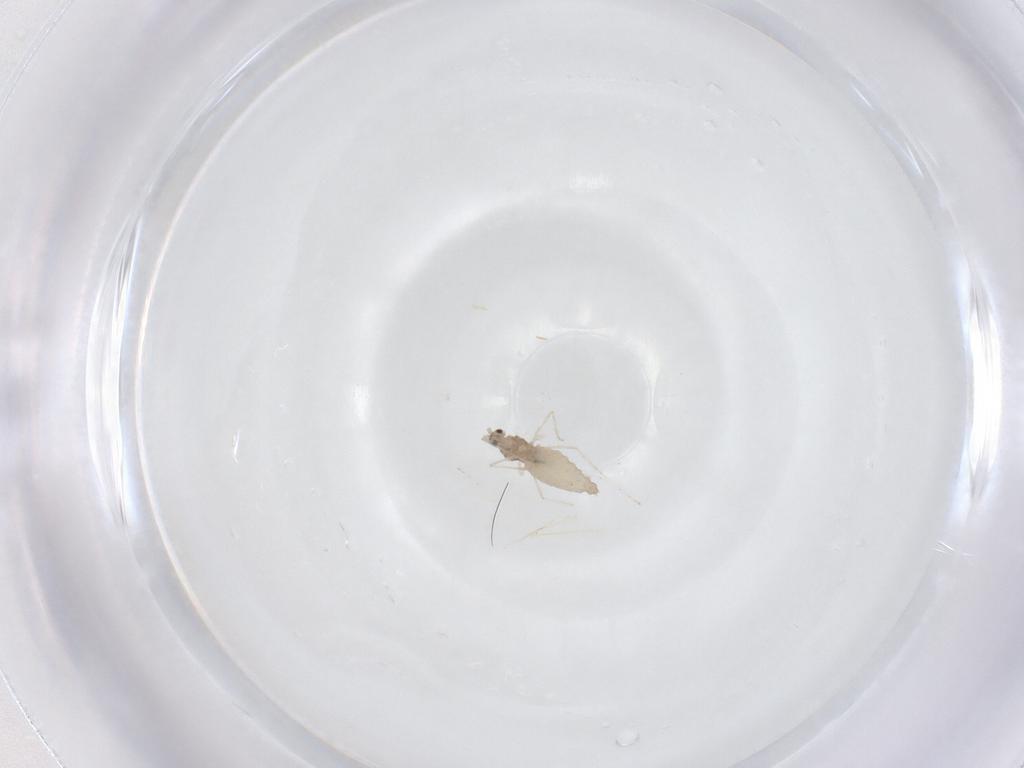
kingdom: Animalia
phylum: Arthropoda
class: Insecta
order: Diptera
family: Cecidomyiidae
